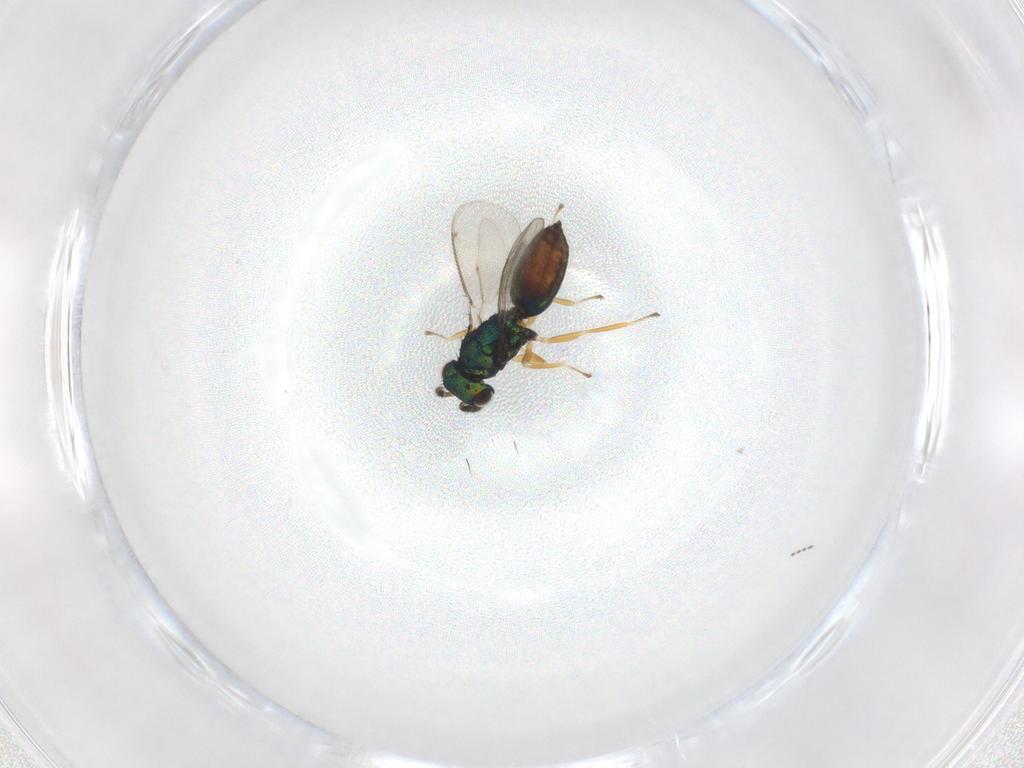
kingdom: Animalia
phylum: Arthropoda
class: Insecta
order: Hymenoptera
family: Eulophidae
